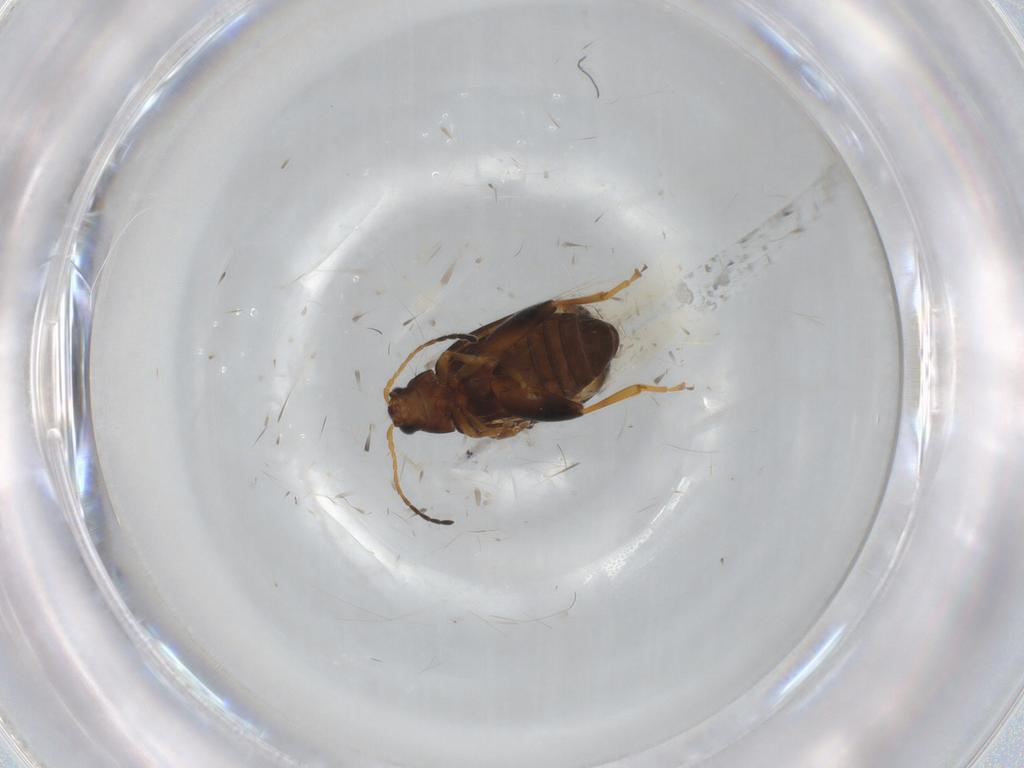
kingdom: Animalia
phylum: Arthropoda
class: Insecta
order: Coleoptera
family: Chrysomelidae
